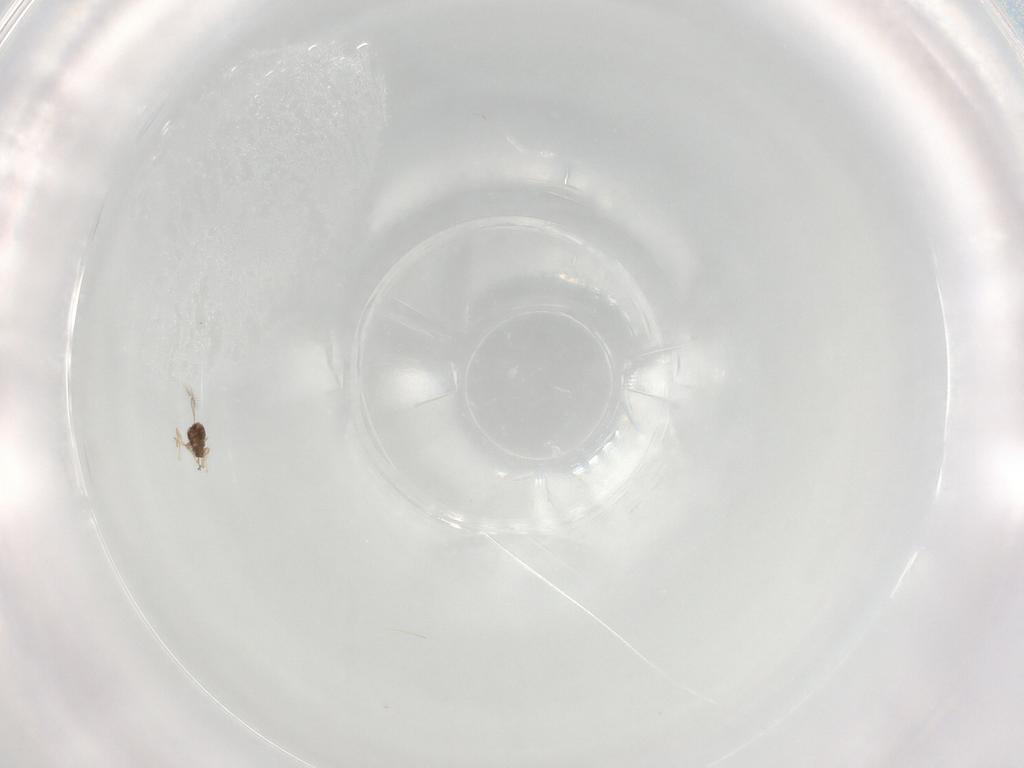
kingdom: Animalia
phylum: Arthropoda
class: Insecta
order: Hymenoptera
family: Mymaridae
